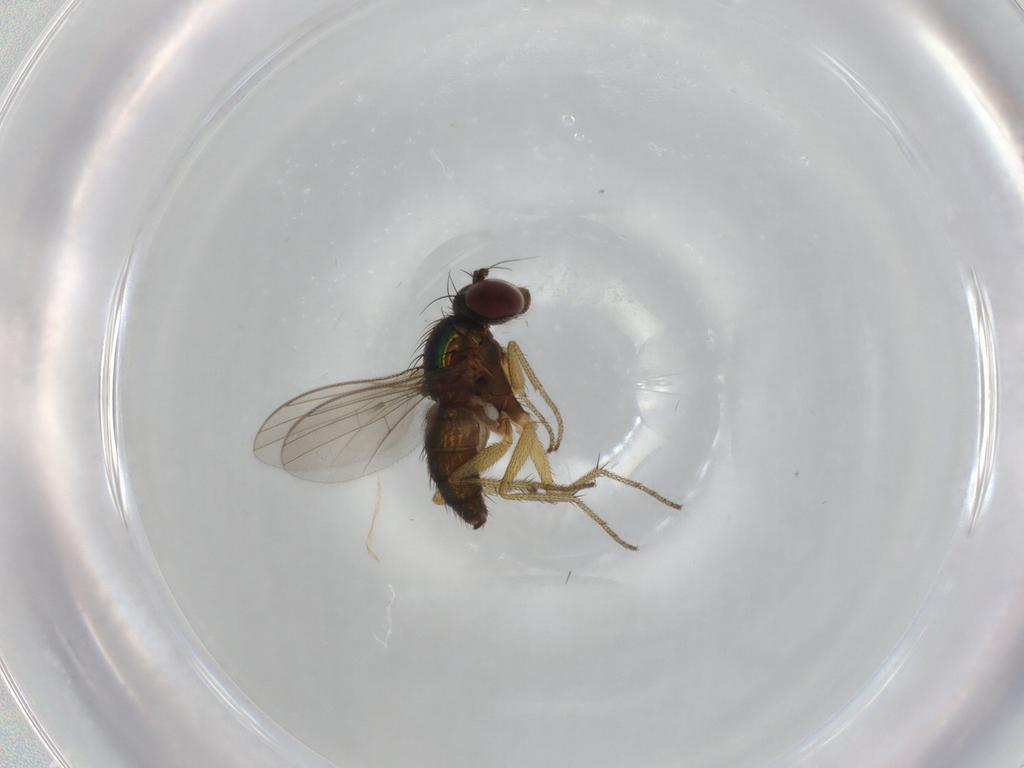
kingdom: Animalia
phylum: Arthropoda
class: Insecta
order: Diptera
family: Dolichopodidae
